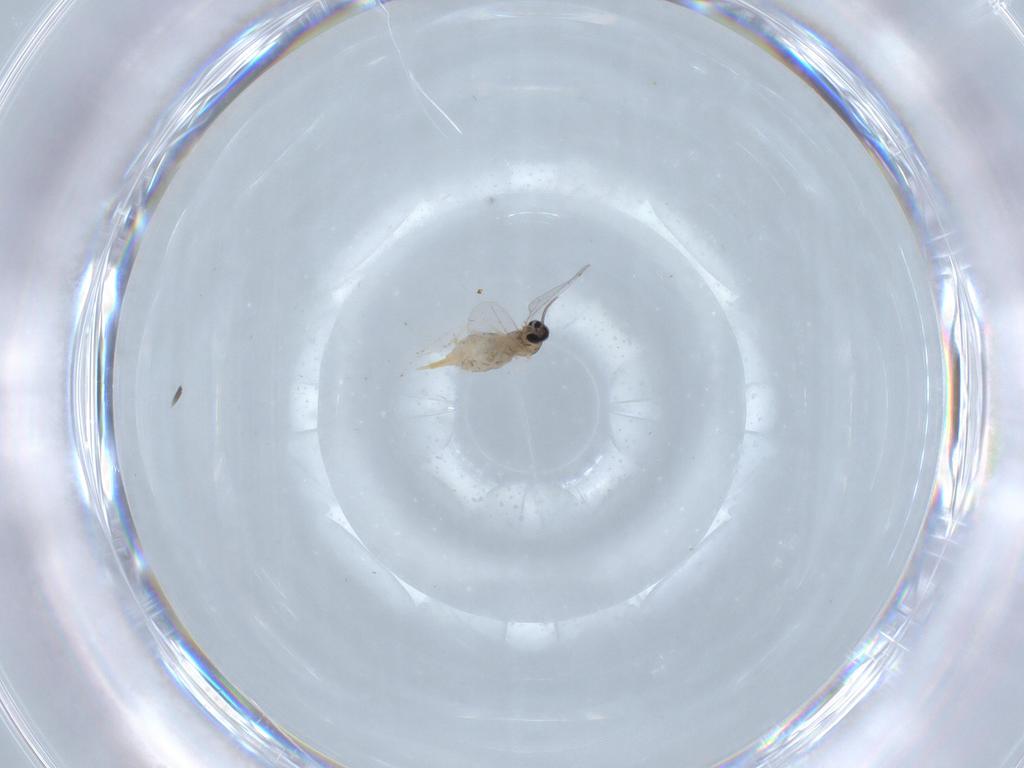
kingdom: Animalia
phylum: Arthropoda
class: Insecta
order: Diptera
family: Cecidomyiidae
